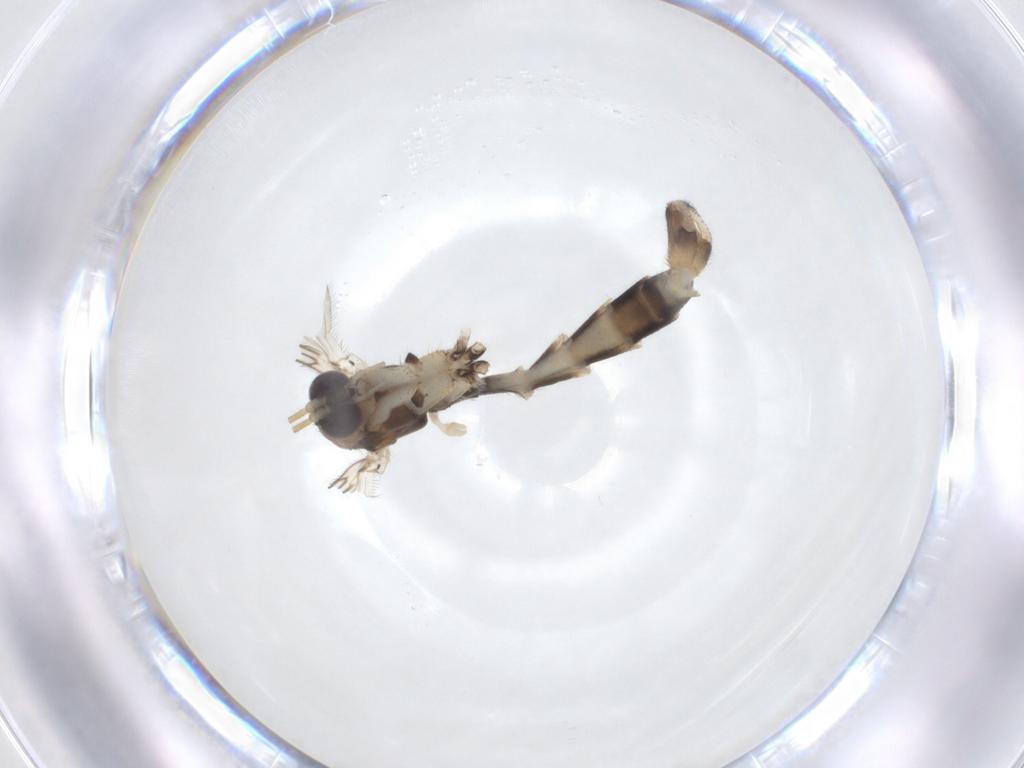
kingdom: Animalia
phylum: Arthropoda
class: Insecta
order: Diptera
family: Mycetophilidae
